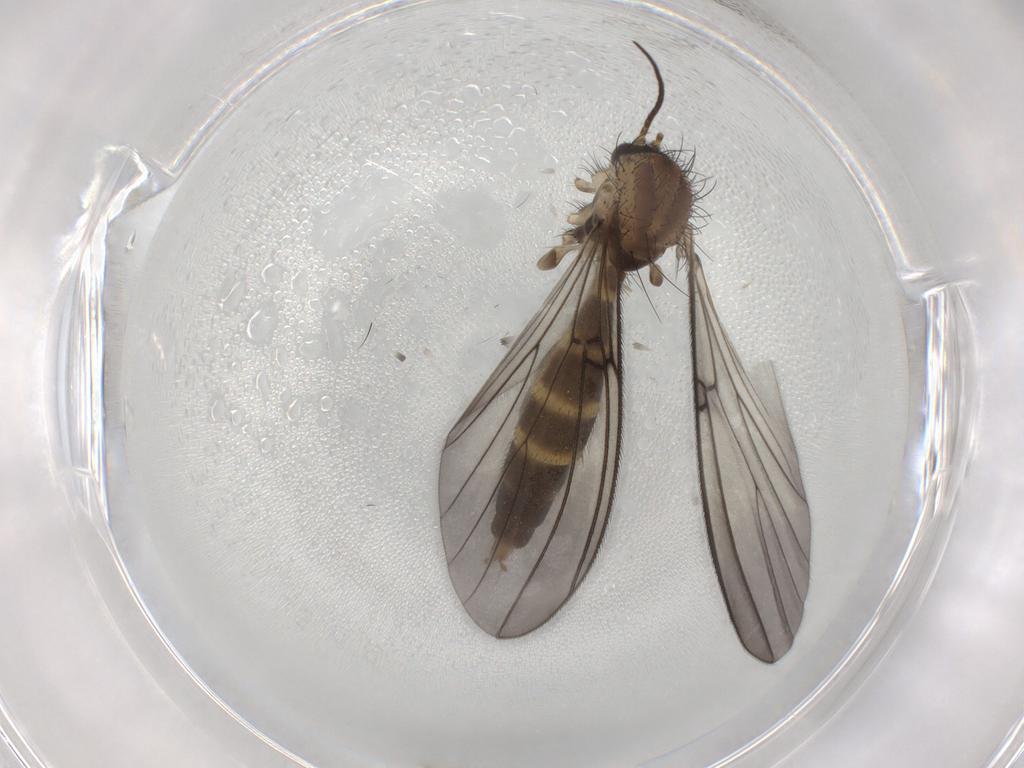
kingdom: Animalia
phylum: Arthropoda
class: Insecta
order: Diptera
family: Mycetophilidae
